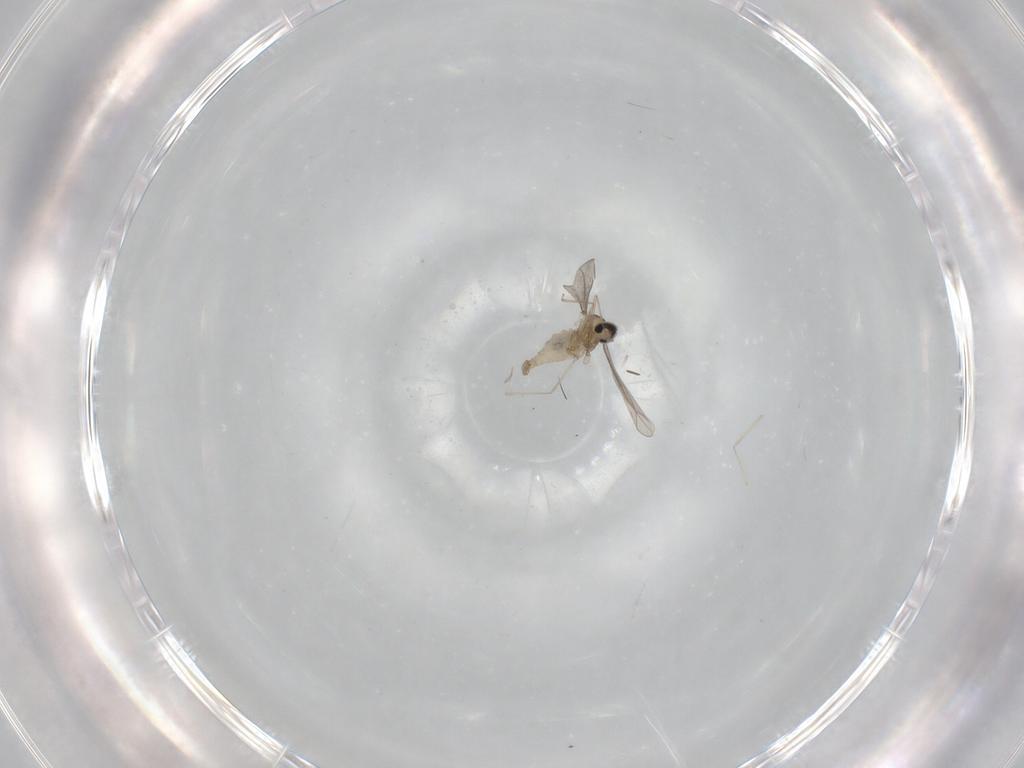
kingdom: Animalia
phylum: Arthropoda
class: Insecta
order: Diptera
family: Cecidomyiidae
